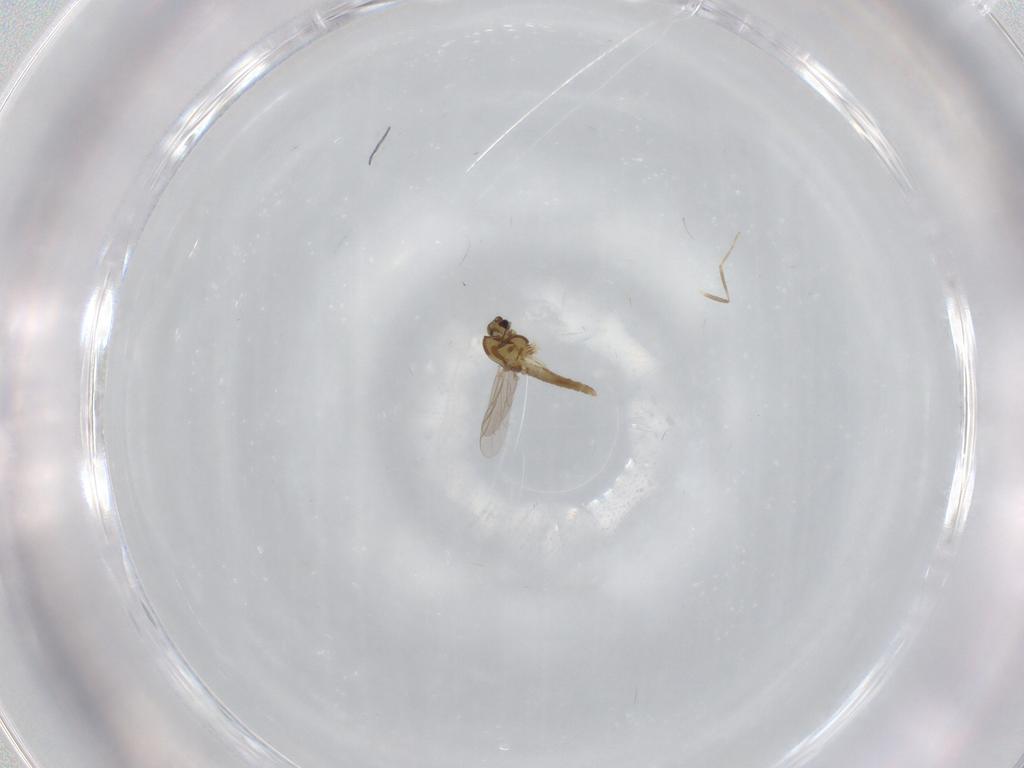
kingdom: Animalia
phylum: Arthropoda
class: Insecta
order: Diptera
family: Chironomidae
